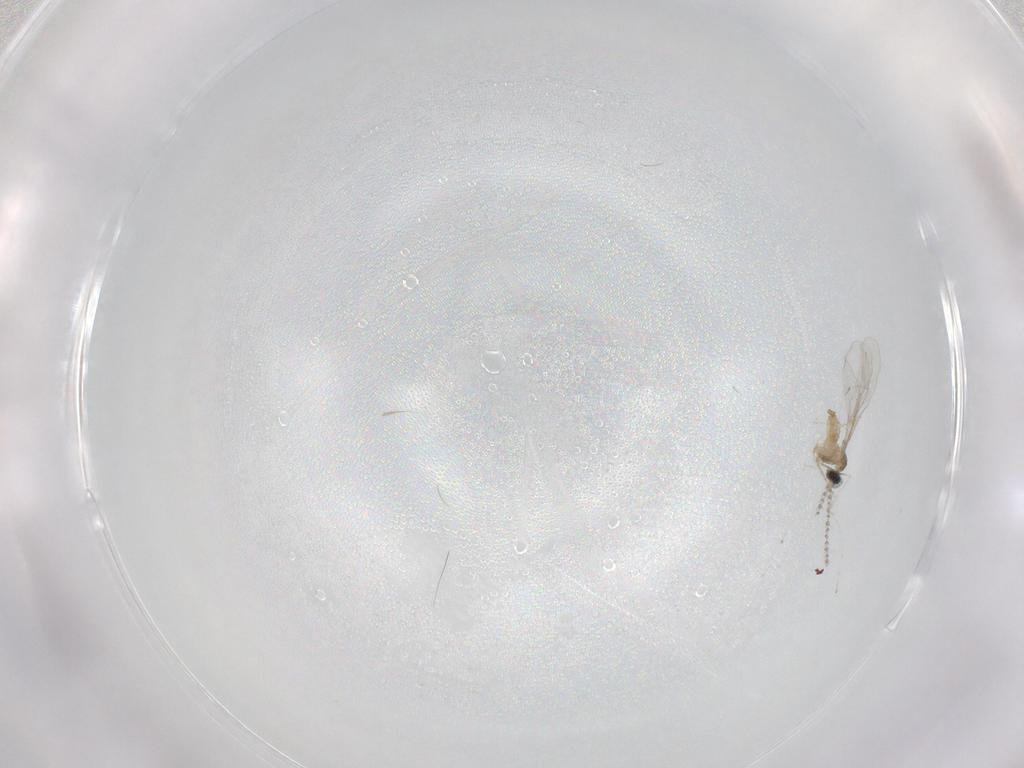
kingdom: Animalia
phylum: Arthropoda
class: Insecta
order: Diptera
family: Cecidomyiidae
